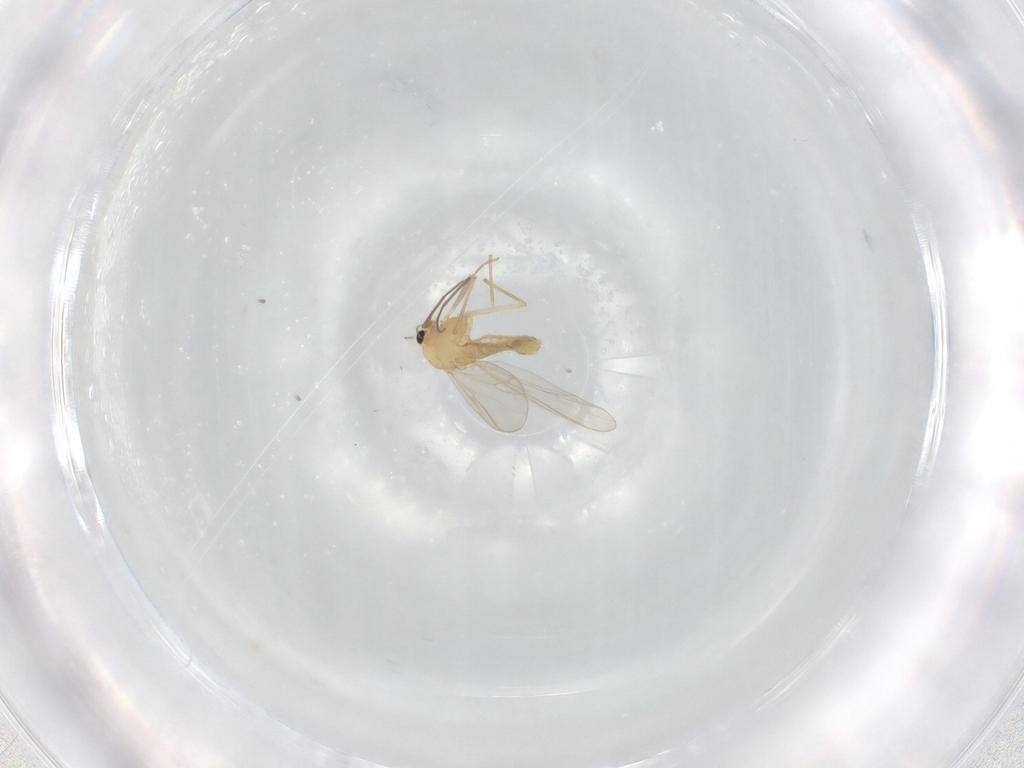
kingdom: Animalia
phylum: Arthropoda
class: Insecta
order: Diptera
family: Chironomidae
